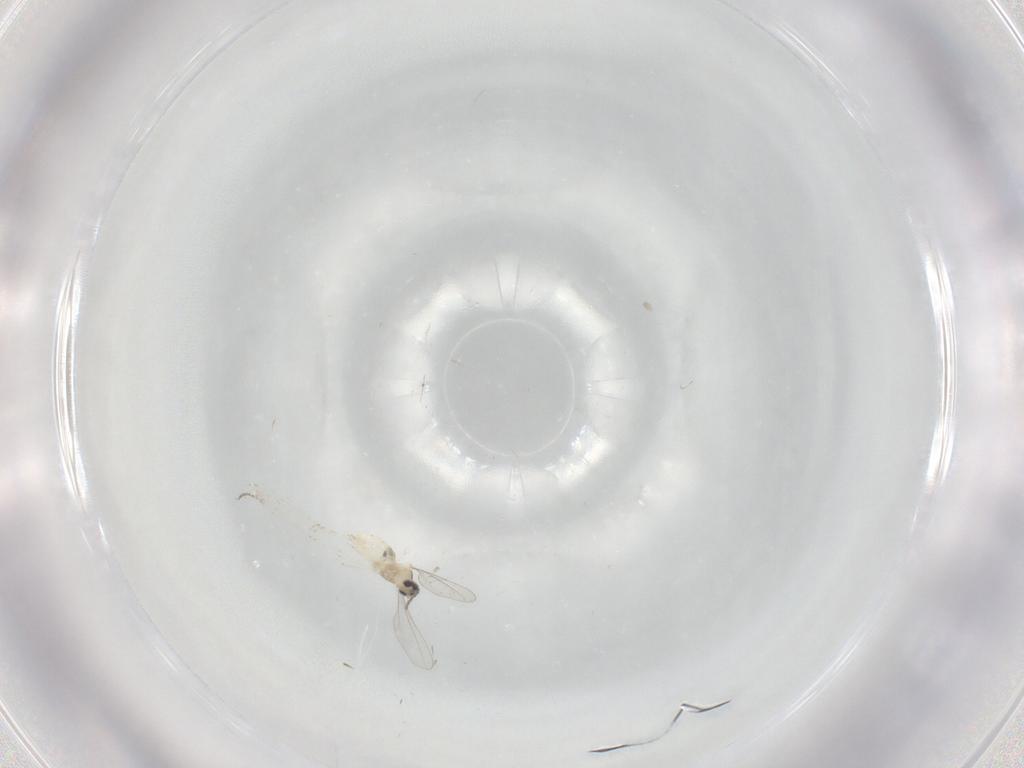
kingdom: Animalia
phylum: Arthropoda
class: Insecta
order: Diptera
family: Cecidomyiidae
